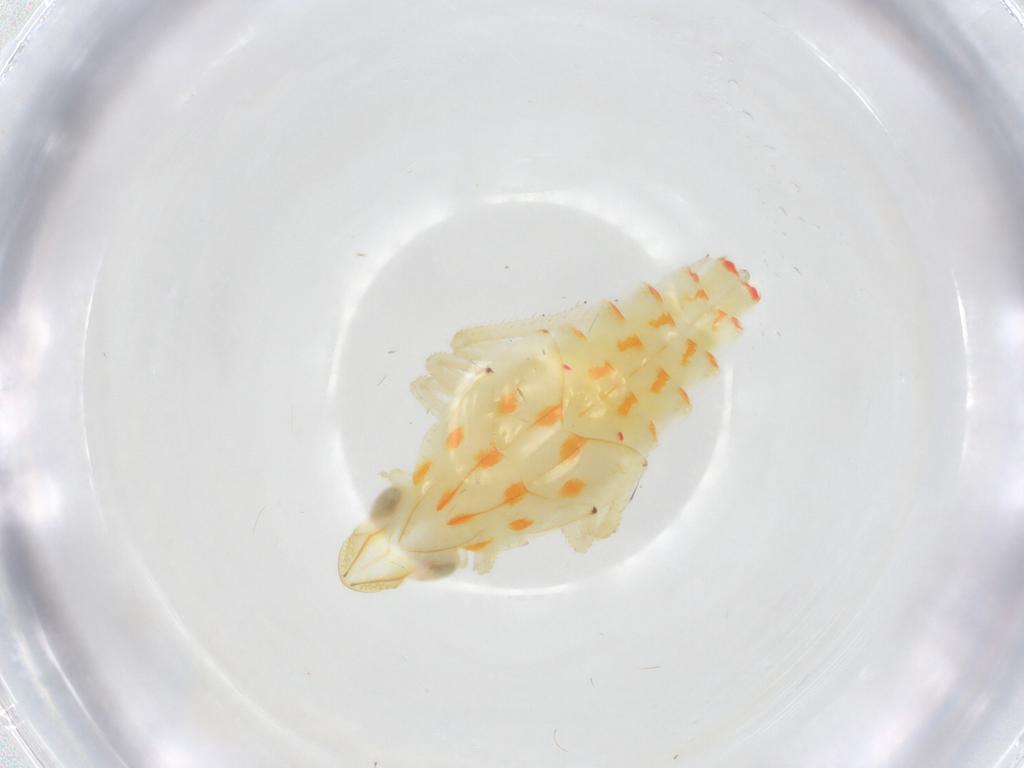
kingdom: Animalia
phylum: Arthropoda
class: Insecta
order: Hemiptera
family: Tropiduchidae
